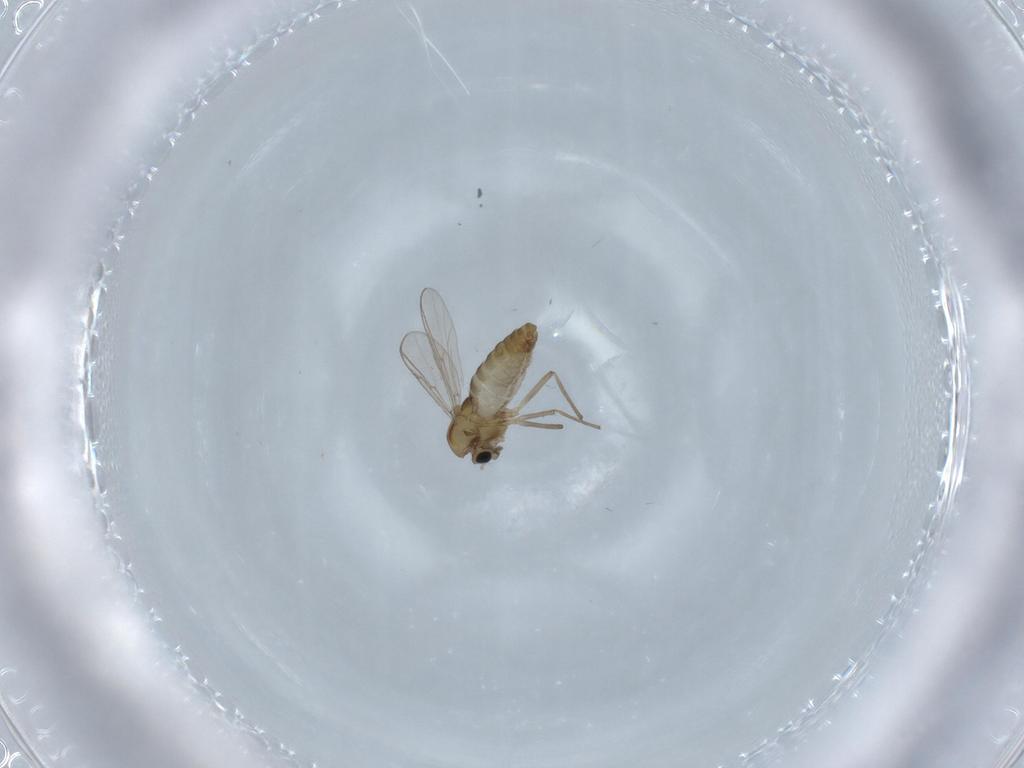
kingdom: Animalia
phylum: Arthropoda
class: Insecta
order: Diptera
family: Chironomidae
